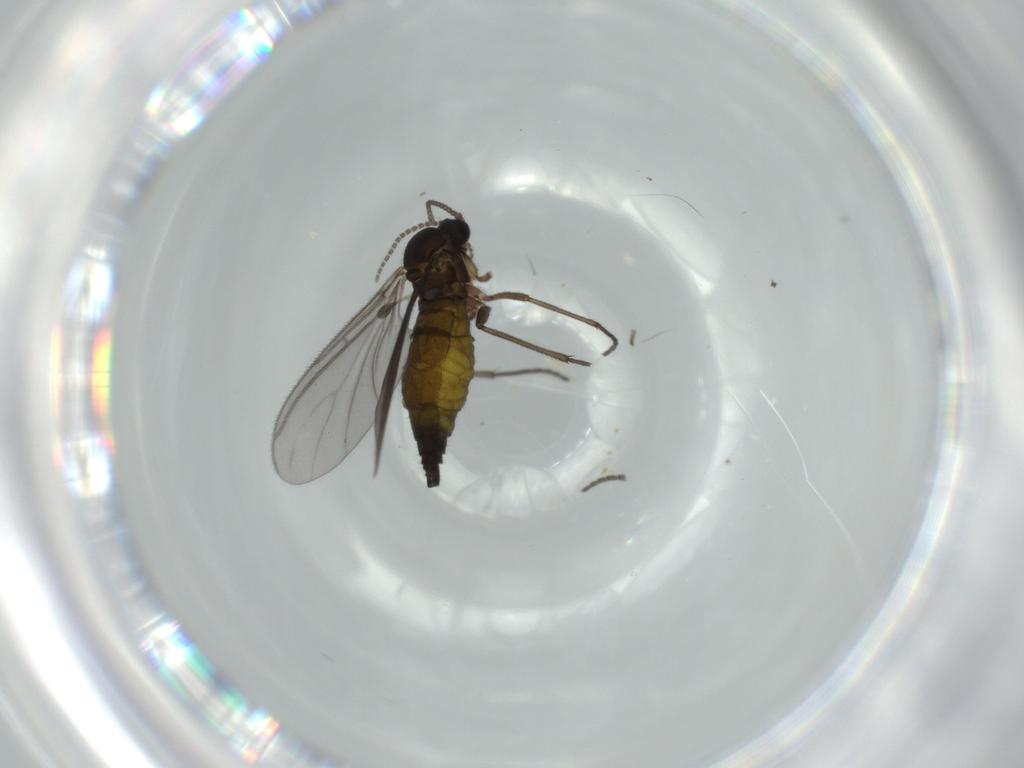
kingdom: Animalia
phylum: Arthropoda
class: Insecta
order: Diptera
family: Sciaridae
